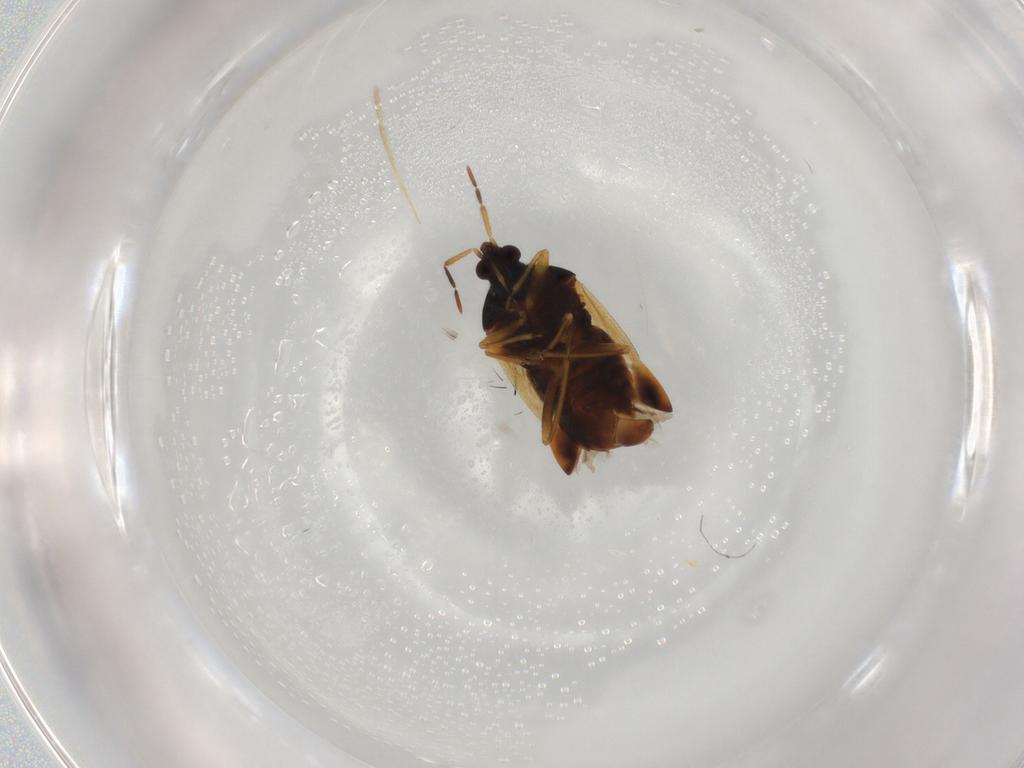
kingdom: Animalia
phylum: Arthropoda
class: Insecta
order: Hemiptera
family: Anthocoridae
